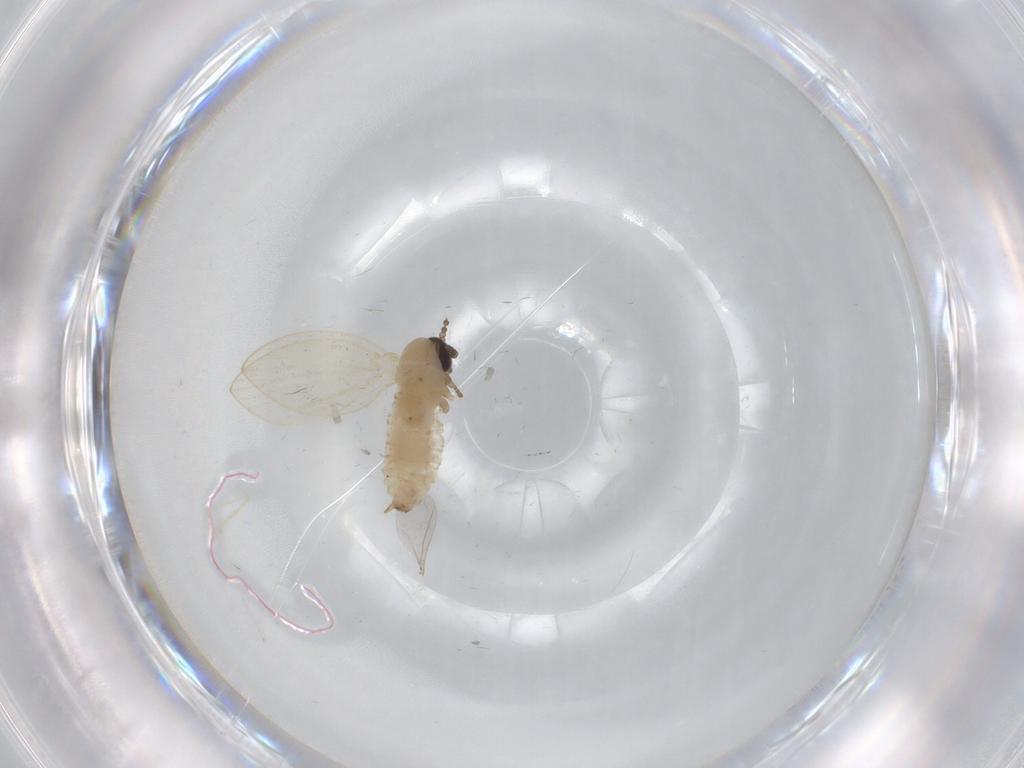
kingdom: Animalia
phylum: Arthropoda
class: Insecta
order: Diptera
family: Psychodidae
